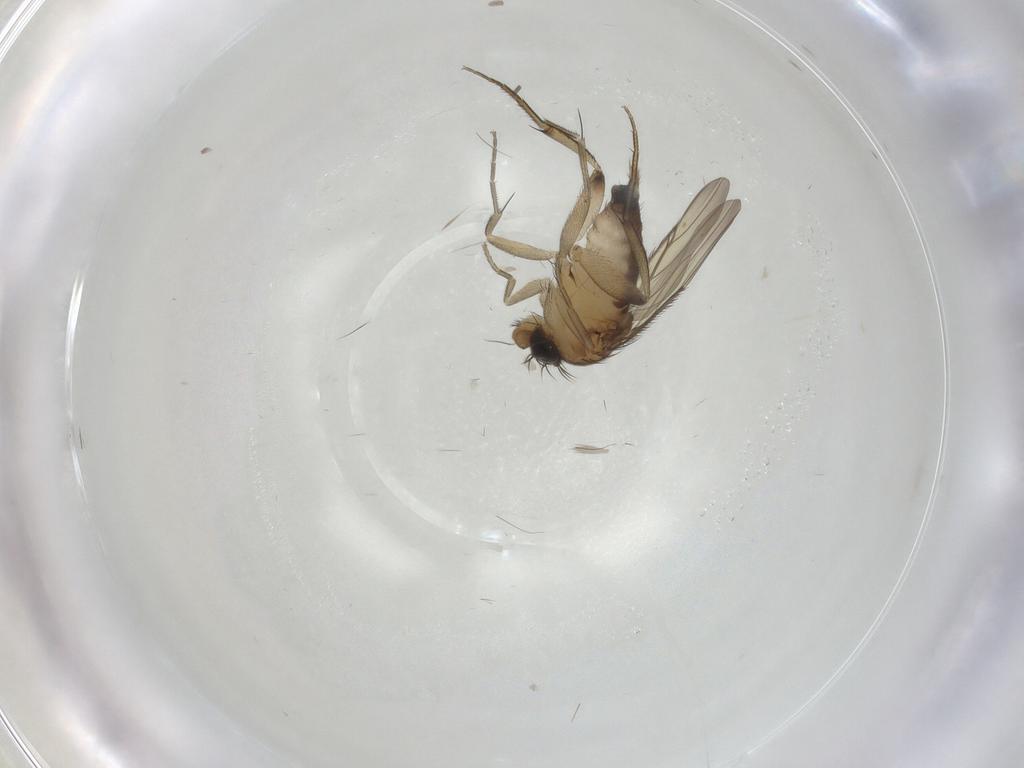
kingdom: Animalia
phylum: Arthropoda
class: Insecta
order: Diptera
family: Phoridae
